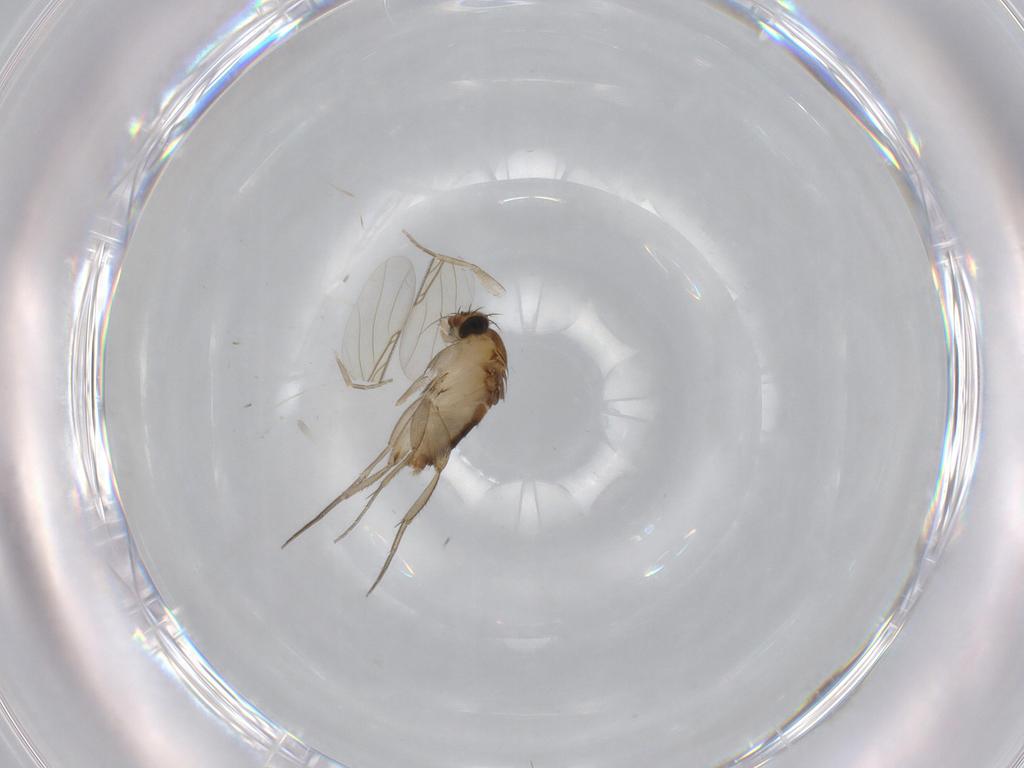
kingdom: Animalia
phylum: Arthropoda
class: Insecta
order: Diptera
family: Phoridae
